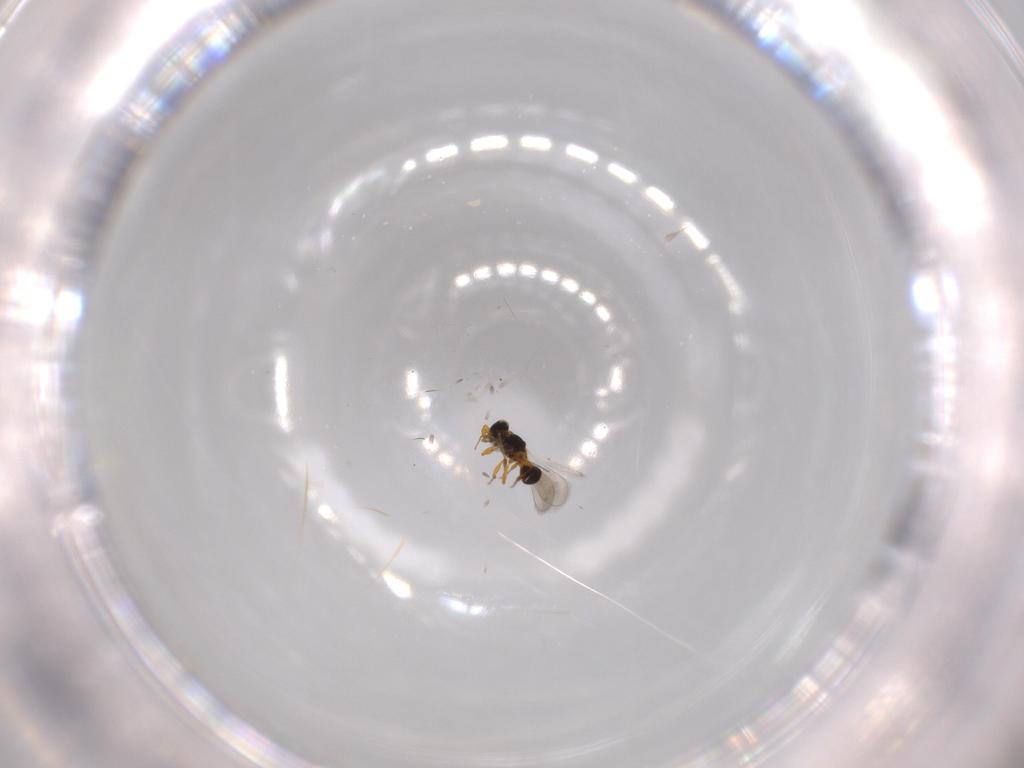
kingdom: Animalia
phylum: Arthropoda
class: Insecta
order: Hymenoptera
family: Platygastridae
